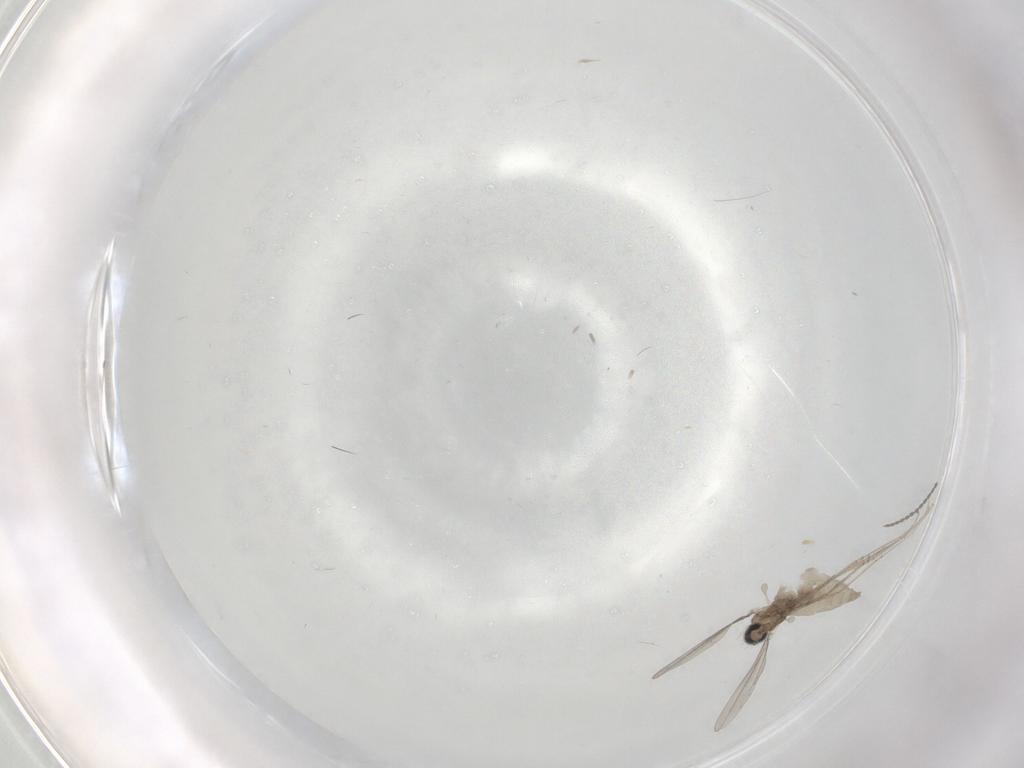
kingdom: Animalia
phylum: Arthropoda
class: Insecta
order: Diptera
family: Cecidomyiidae
